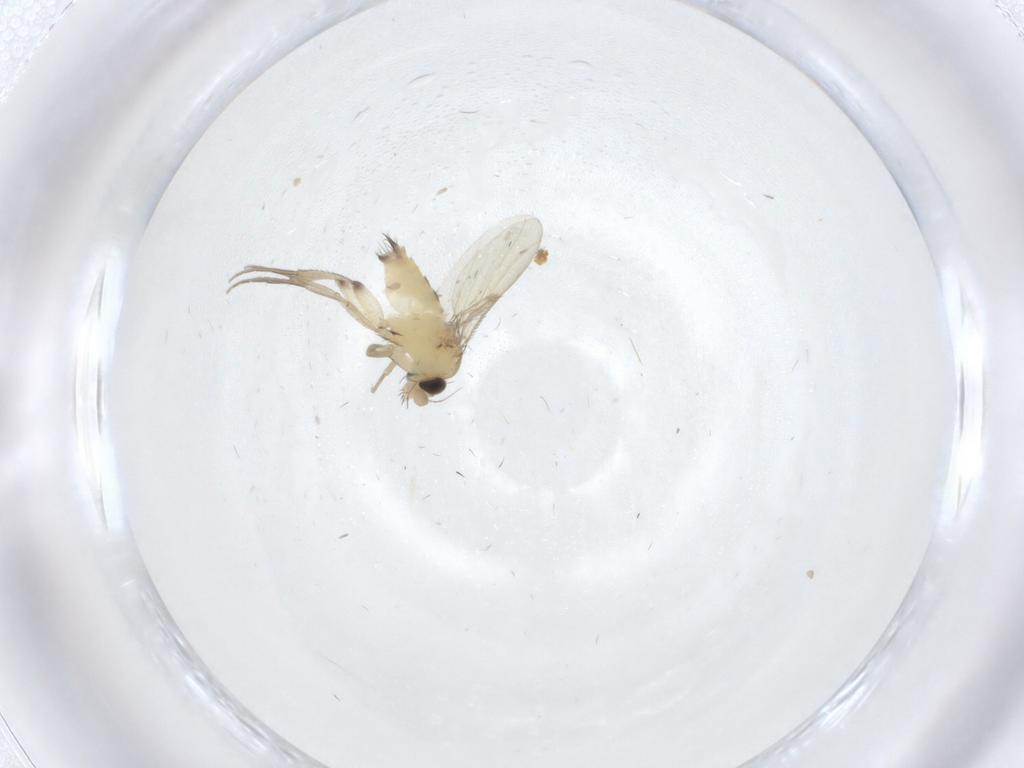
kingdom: Animalia
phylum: Arthropoda
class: Insecta
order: Diptera
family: Phoridae
